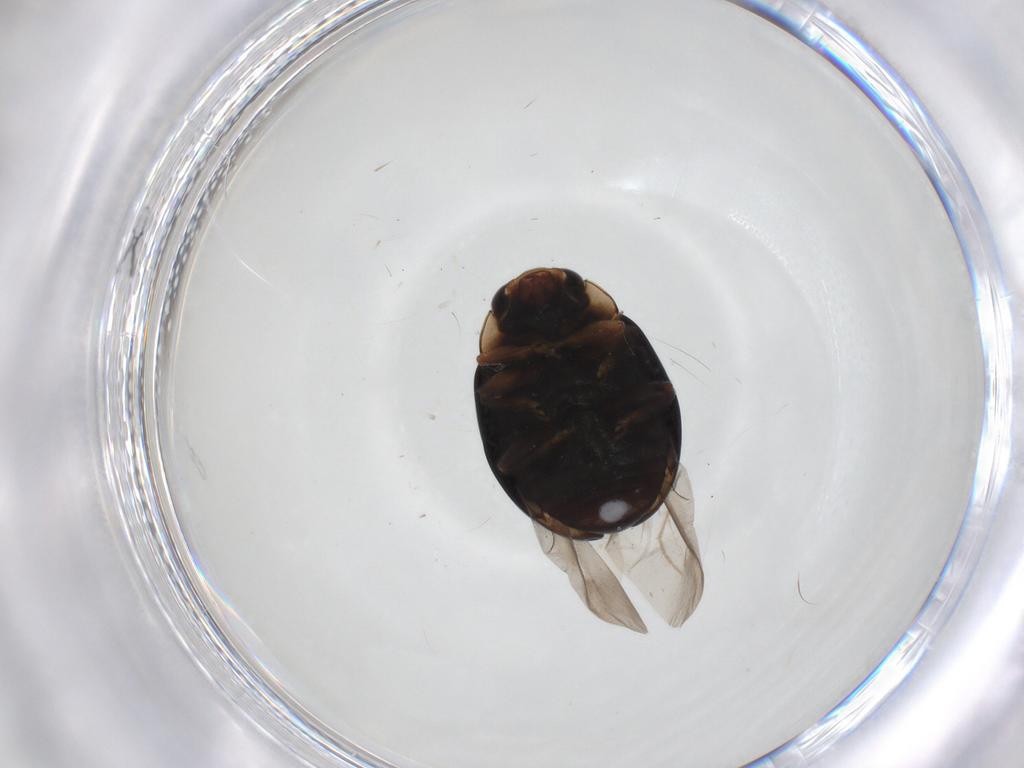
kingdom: Animalia
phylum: Arthropoda
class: Insecta
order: Coleoptera
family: Coccinellidae
